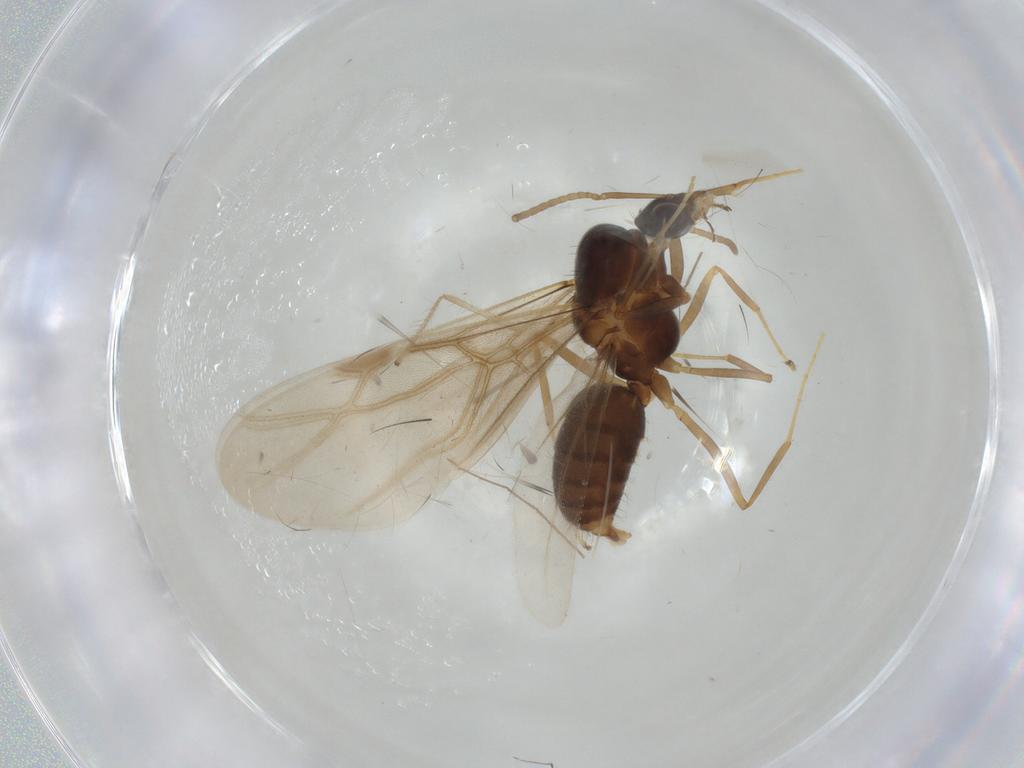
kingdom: Animalia
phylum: Arthropoda
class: Insecta
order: Hymenoptera
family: Formicidae
